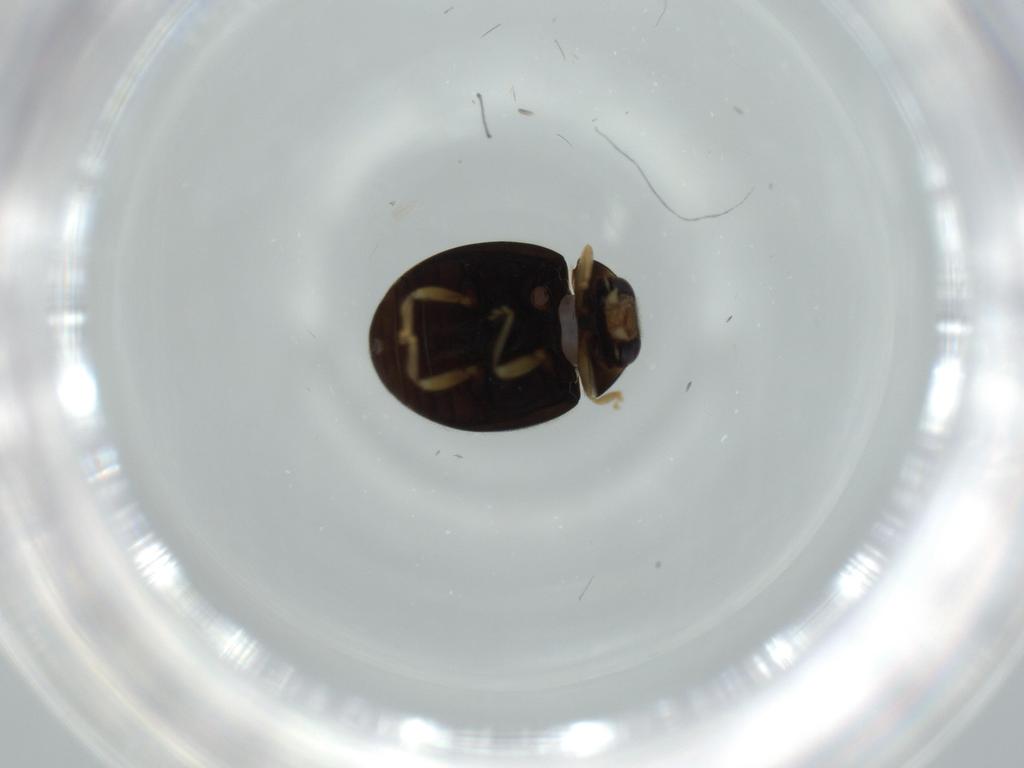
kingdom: Animalia
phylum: Arthropoda
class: Insecta
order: Coleoptera
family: Coccinellidae
